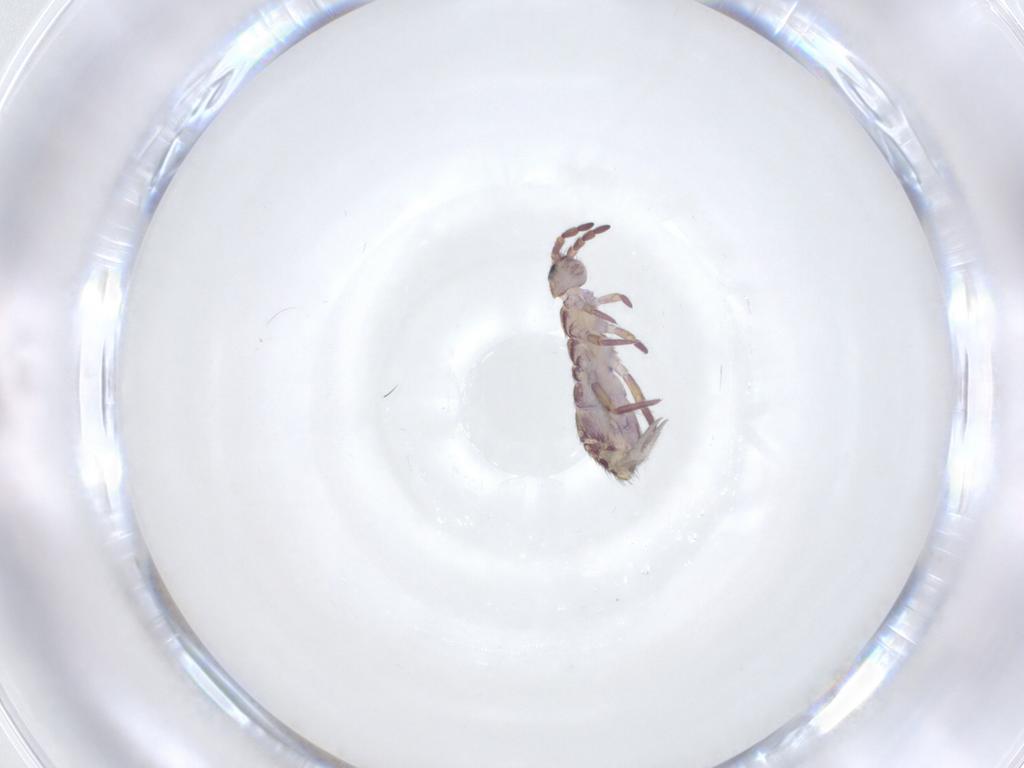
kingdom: Animalia
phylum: Arthropoda
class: Collembola
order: Entomobryomorpha
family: Isotomidae
